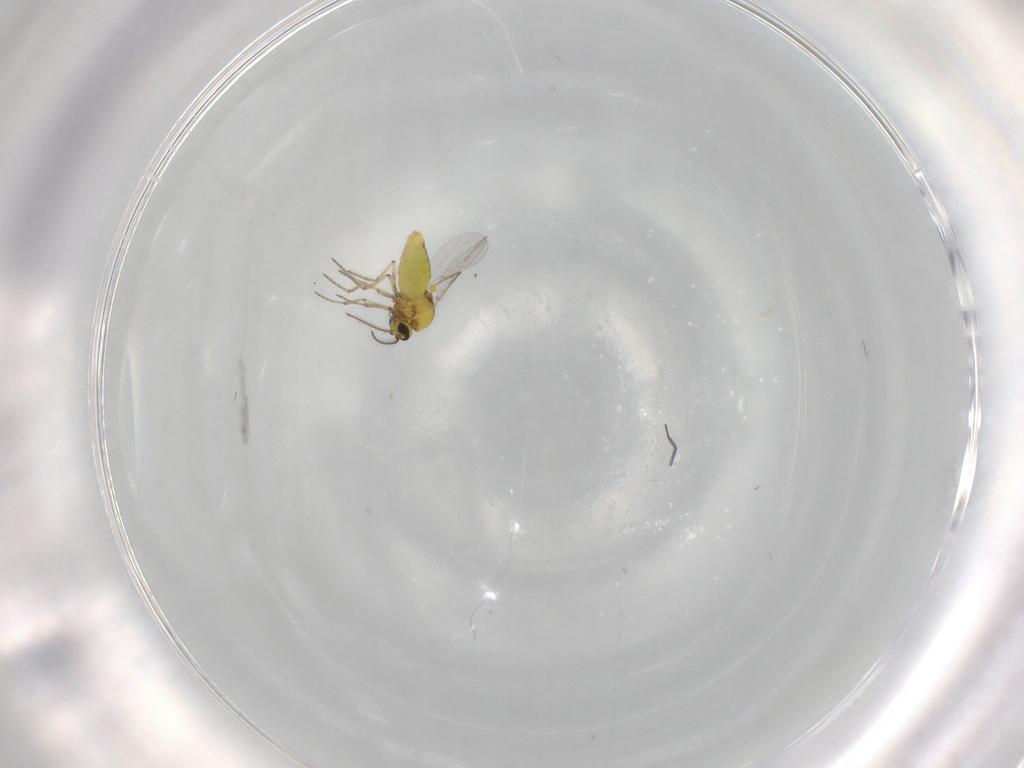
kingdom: Animalia
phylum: Arthropoda
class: Insecta
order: Diptera
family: Ceratopogonidae
